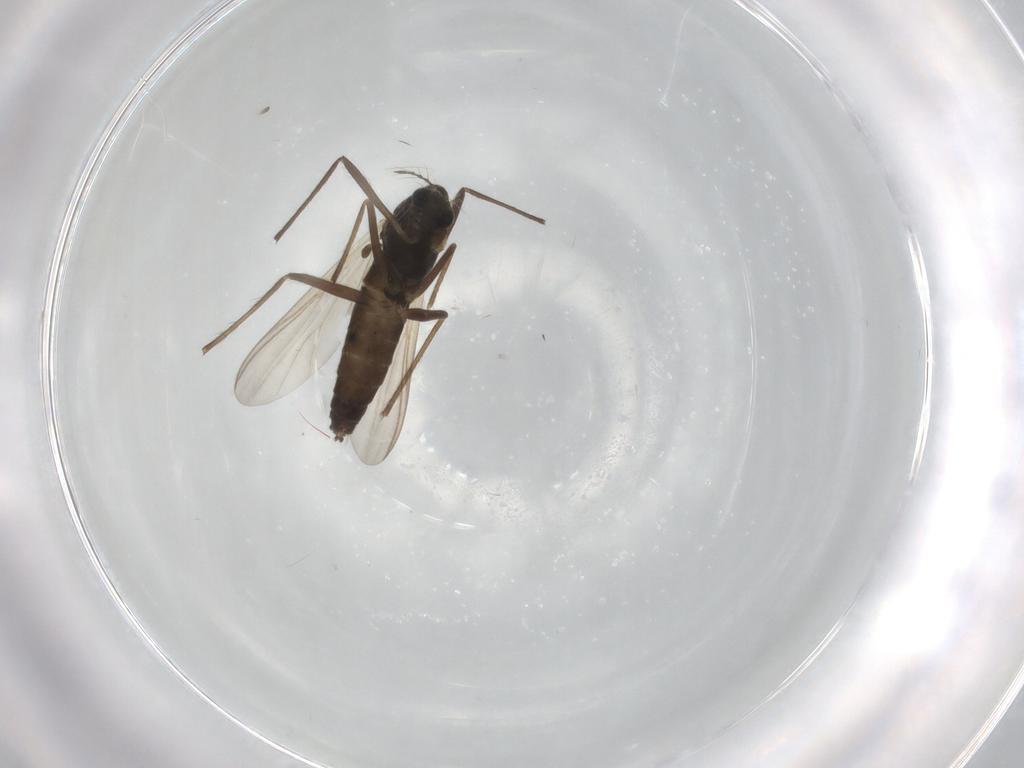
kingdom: Animalia
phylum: Arthropoda
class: Insecta
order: Diptera
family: Chironomidae
